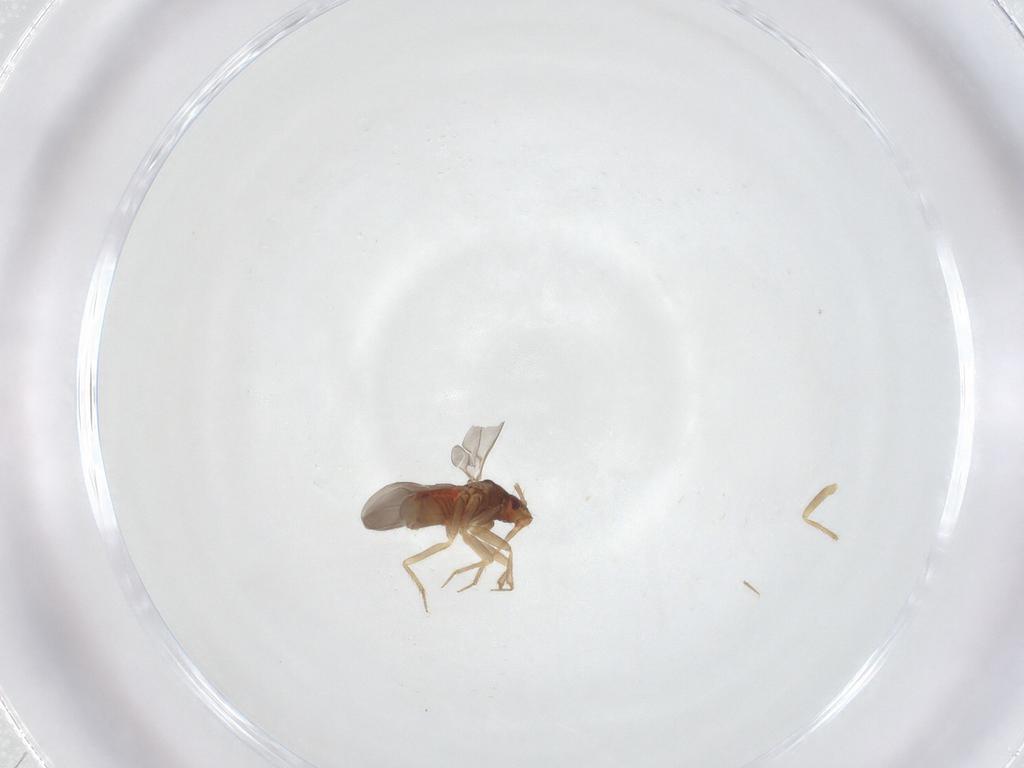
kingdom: Animalia
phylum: Arthropoda
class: Insecta
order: Hemiptera
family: Ceratocombidae
